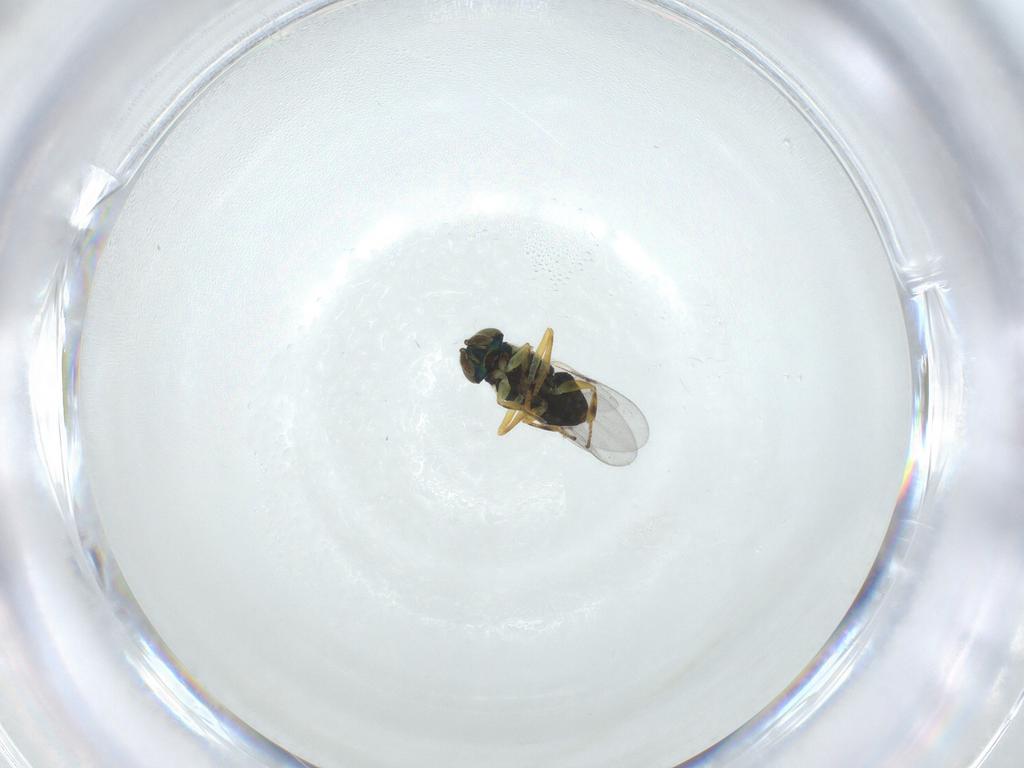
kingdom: Animalia
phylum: Arthropoda
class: Insecta
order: Hymenoptera
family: Encyrtidae
